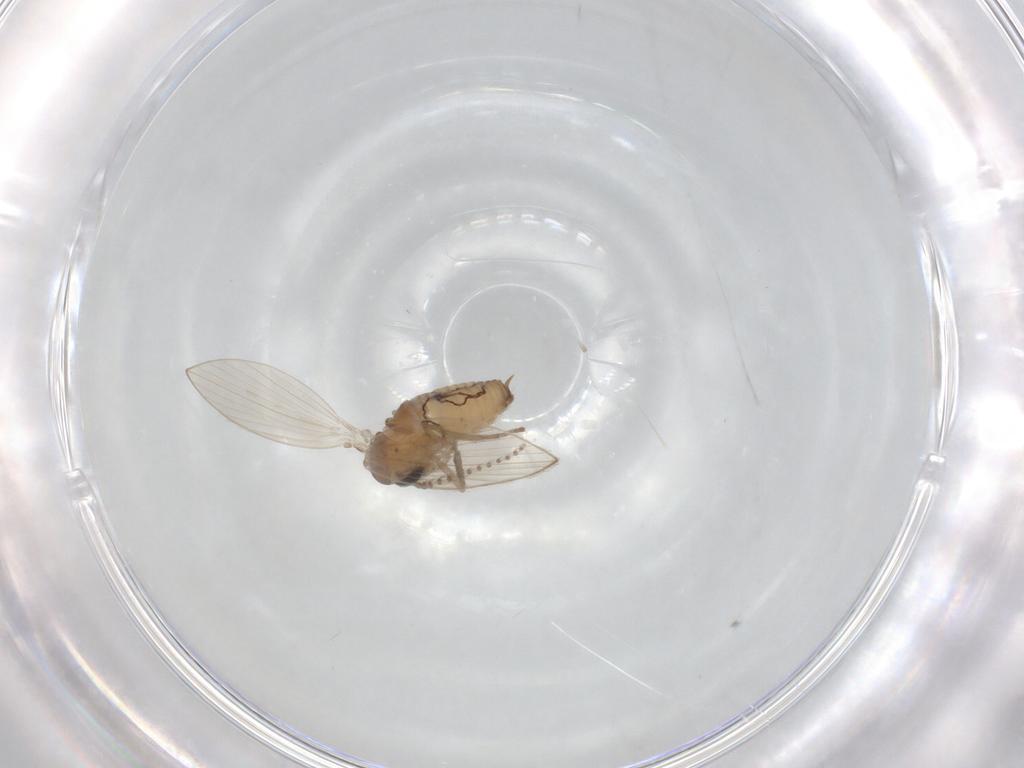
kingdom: Animalia
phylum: Arthropoda
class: Insecta
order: Diptera
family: Psychodidae
